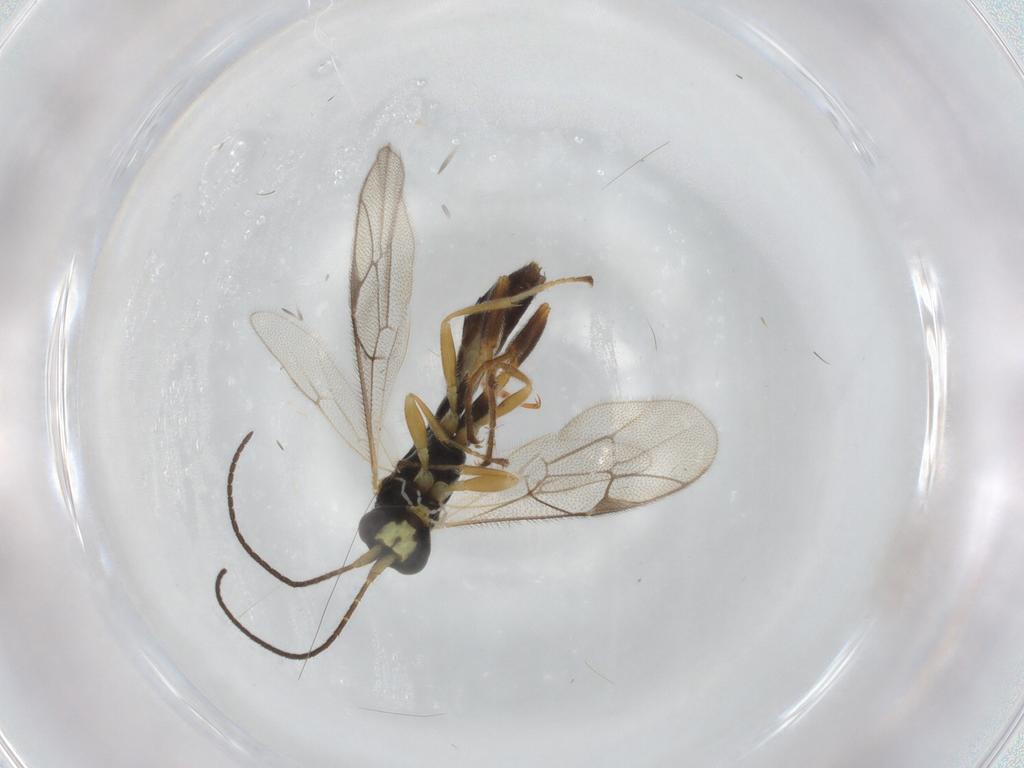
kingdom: Animalia
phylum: Arthropoda
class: Insecta
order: Hymenoptera
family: Ichneumonidae
